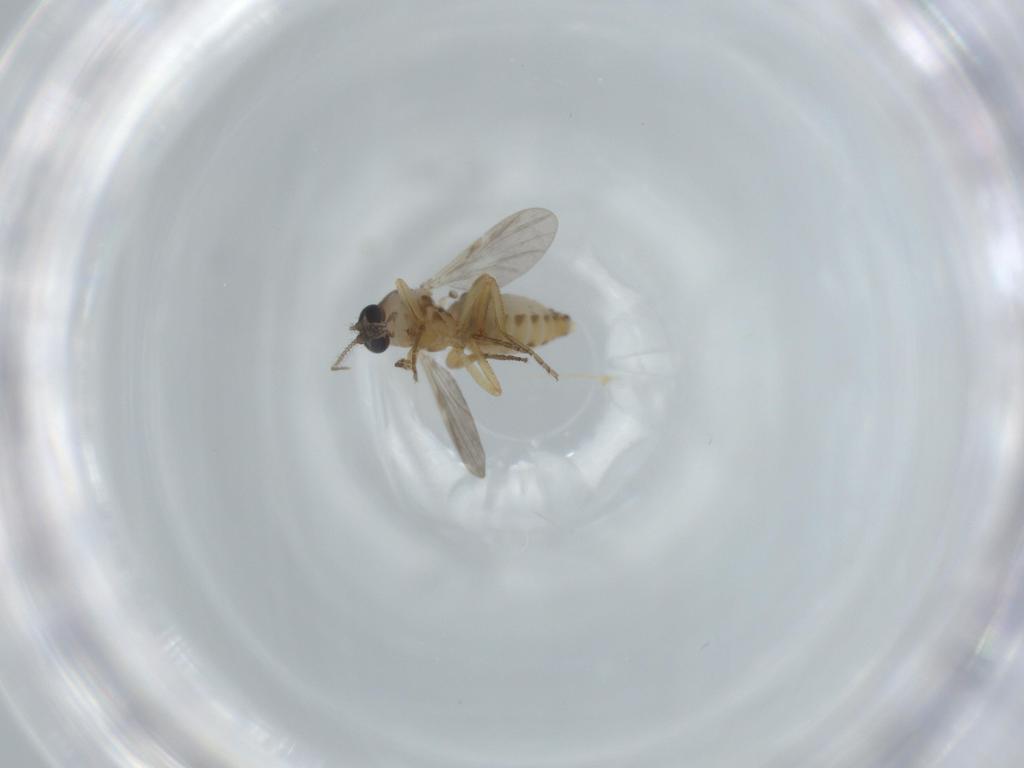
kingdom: Animalia
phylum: Arthropoda
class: Insecta
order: Diptera
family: Ceratopogonidae
